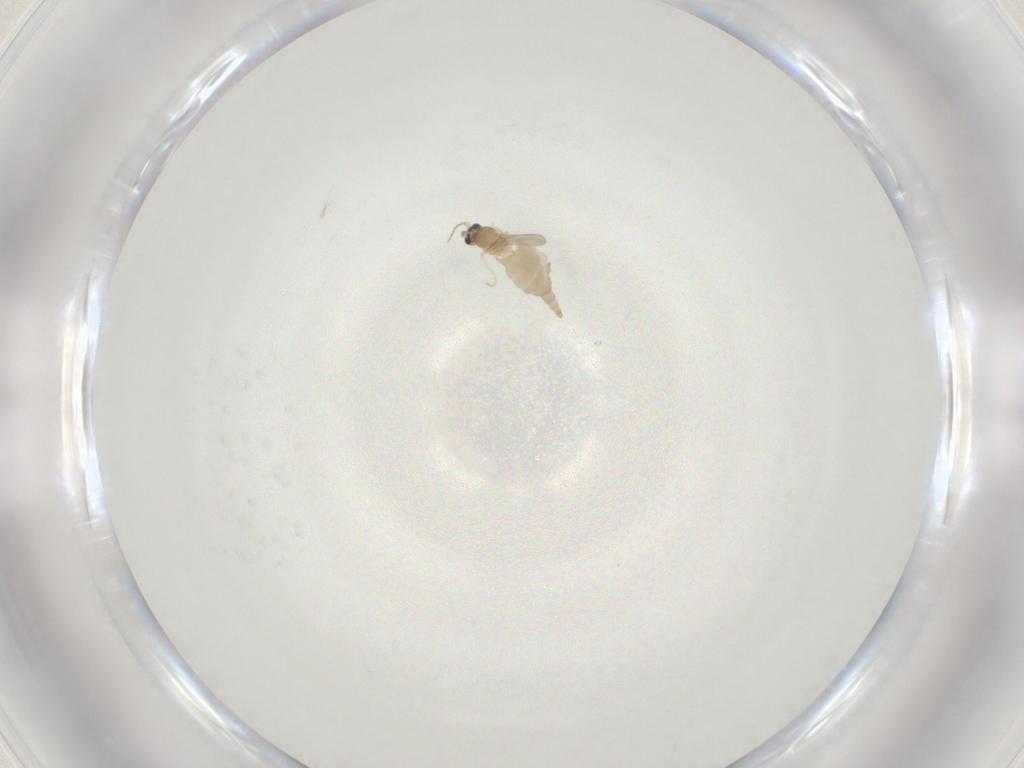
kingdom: Animalia
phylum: Arthropoda
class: Insecta
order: Diptera
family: Cecidomyiidae
